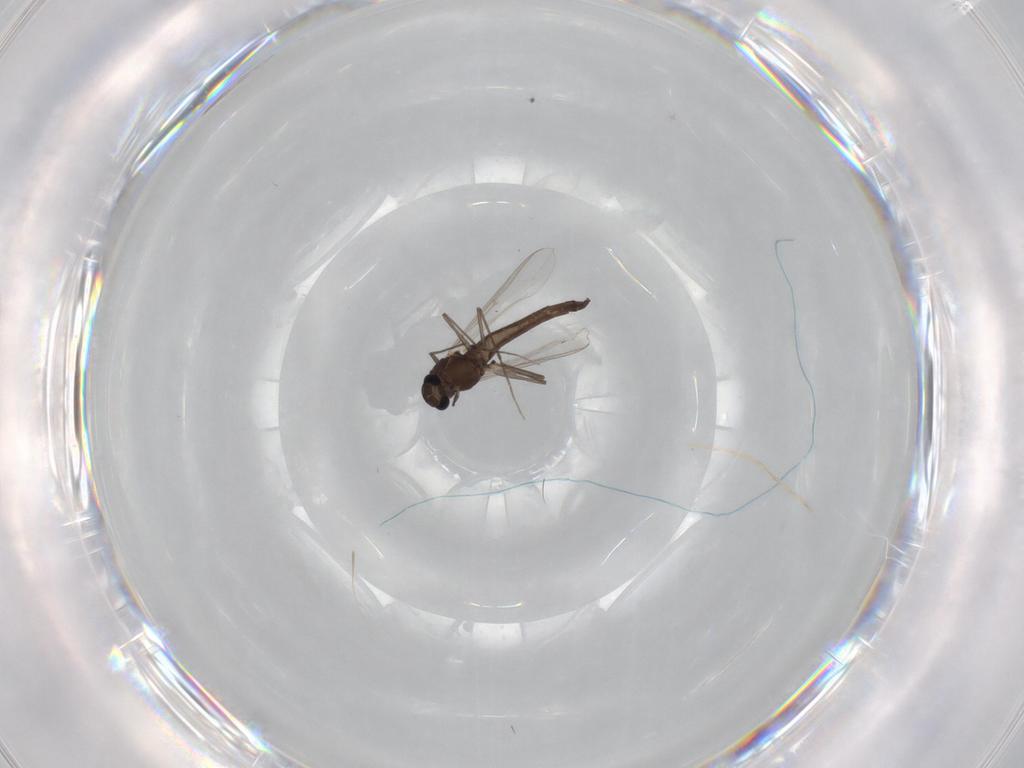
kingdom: Animalia
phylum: Arthropoda
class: Insecta
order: Diptera
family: Chironomidae
